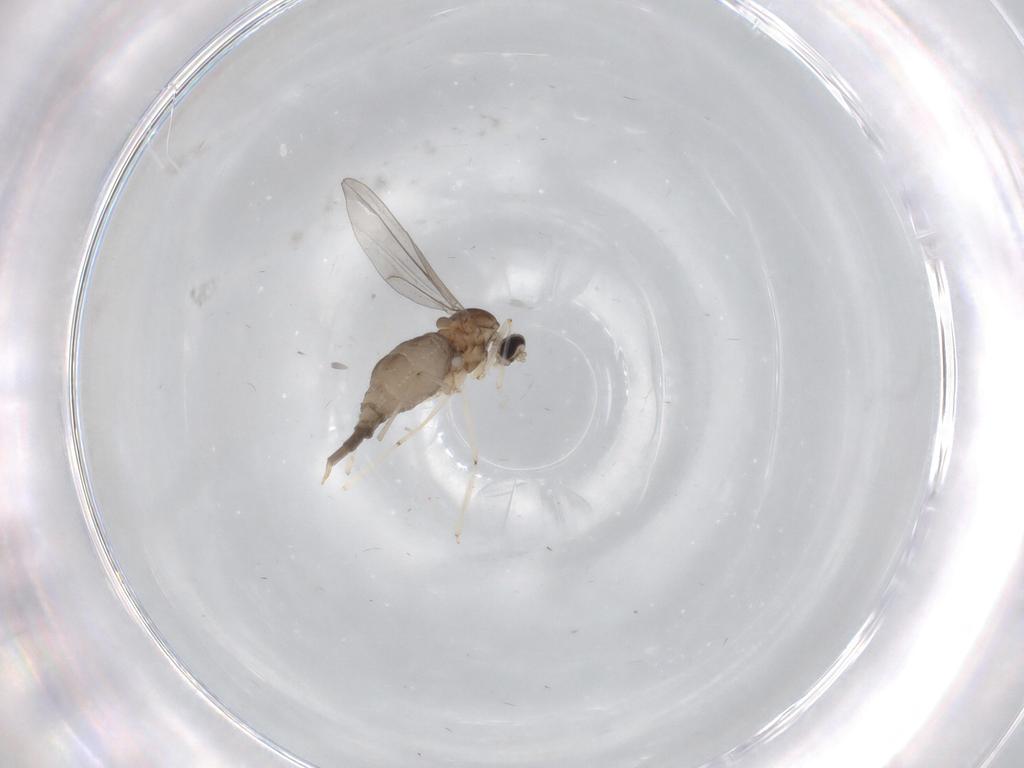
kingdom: Animalia
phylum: Arthropoda
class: Insecta
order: Diptera
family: Cecidomyiidae
